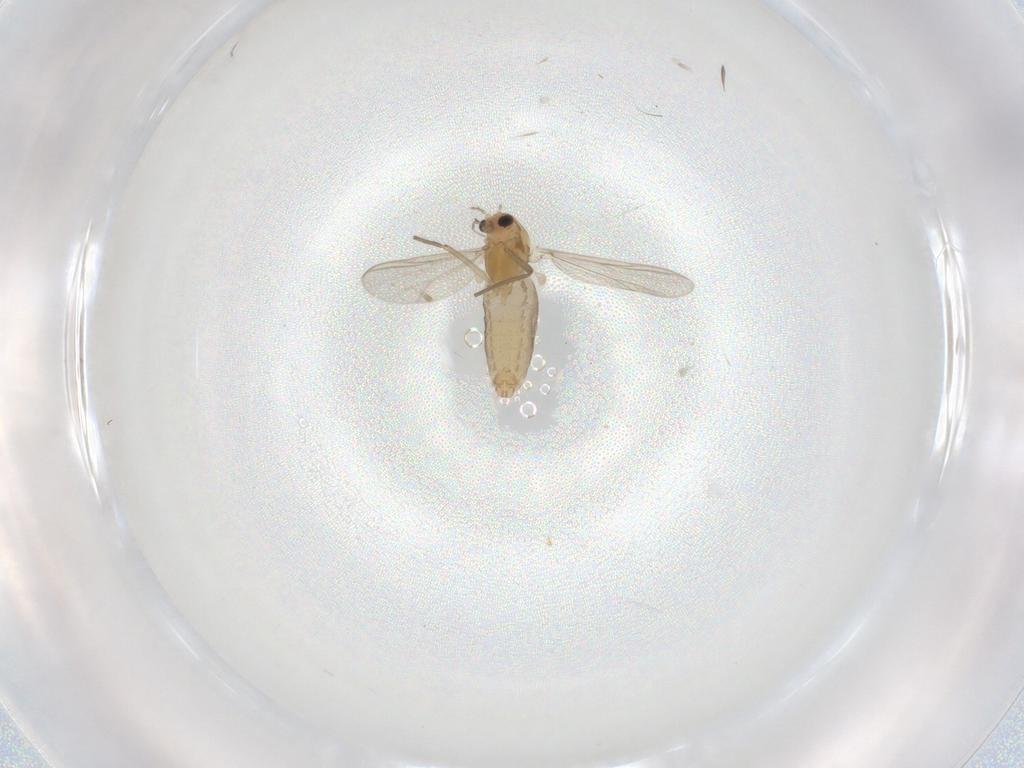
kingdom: Animalia
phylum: Arthropoda
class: Insecta
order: Diptera
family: Chironomidae
